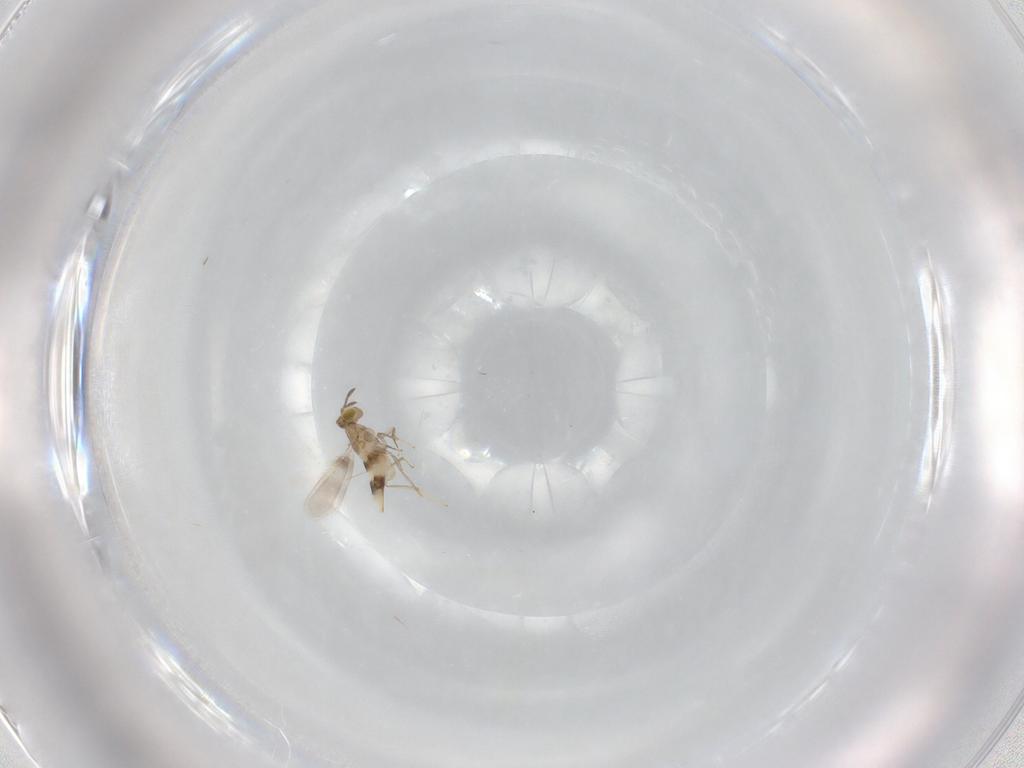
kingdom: Animalia
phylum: Arthropoda
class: Insecta
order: Hymenoptera
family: Aphelinidae
